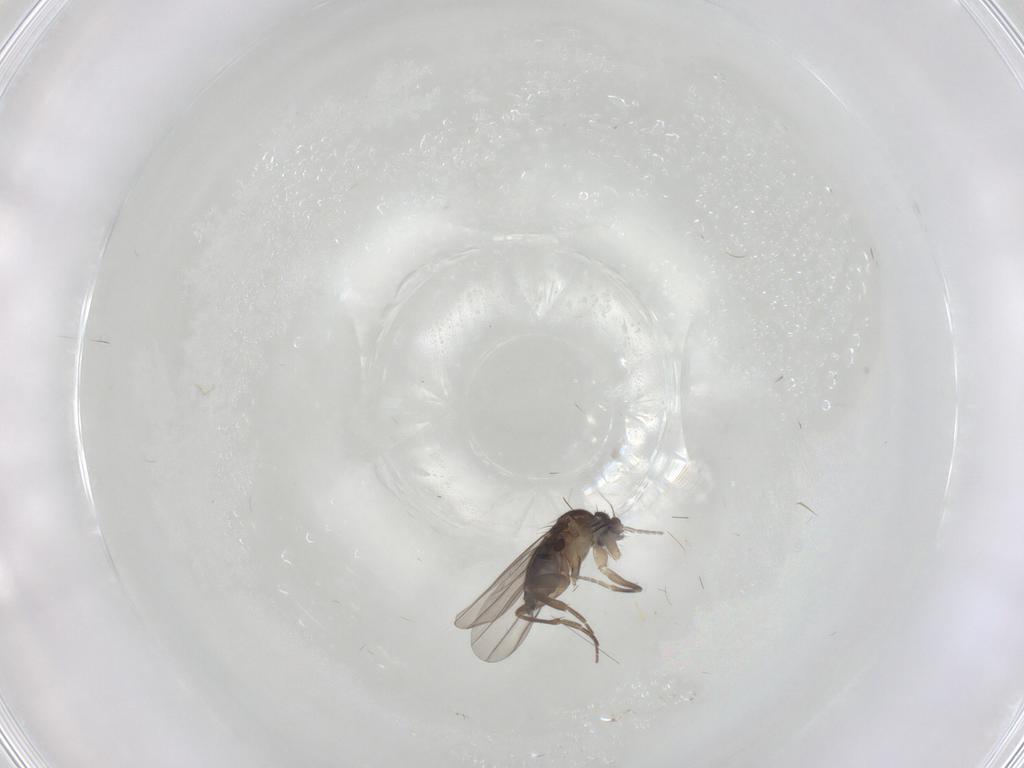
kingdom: Animalia
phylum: Arthropoda
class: Insecta
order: Diptera
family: Phoridae
